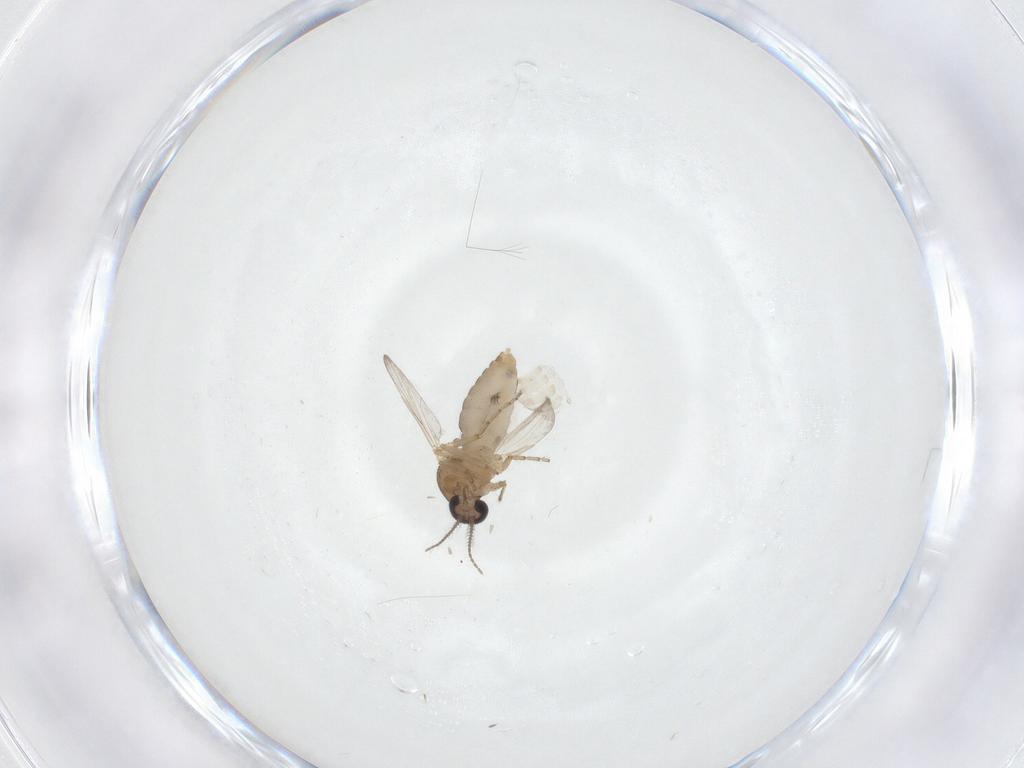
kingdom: Animalia
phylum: Arthropoda
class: Insecta
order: Diptera
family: Ceratopogonidae
